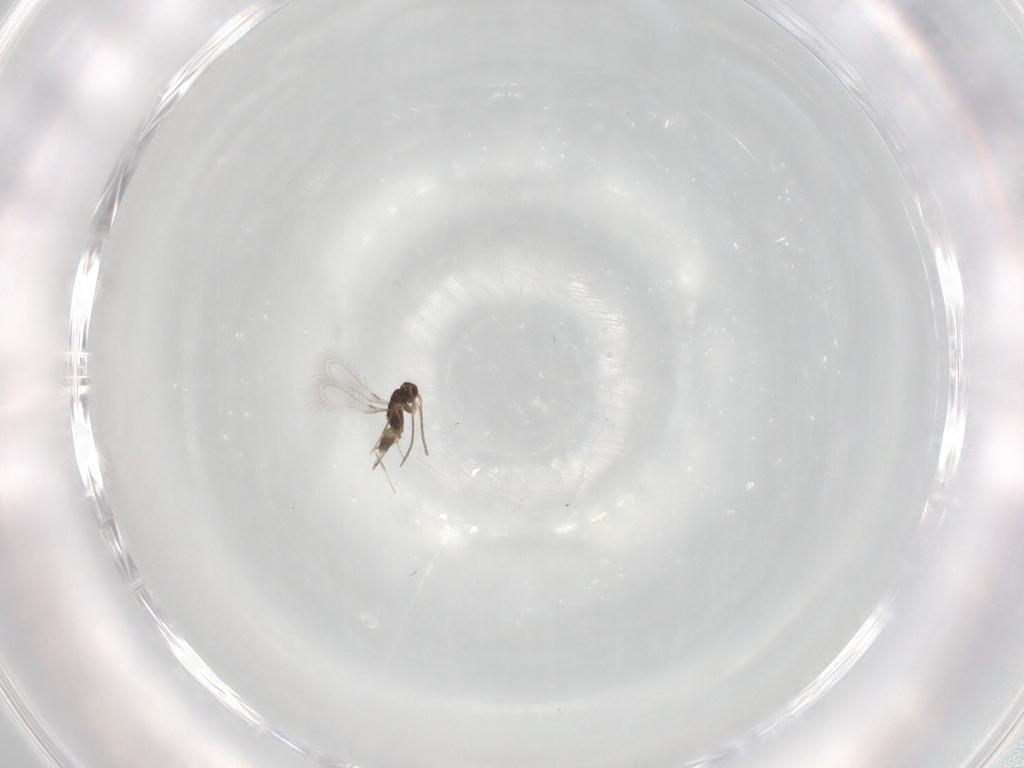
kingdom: Animalia
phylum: Arthropoda
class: Insecta
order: Hymenoptera
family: Mymaridae
